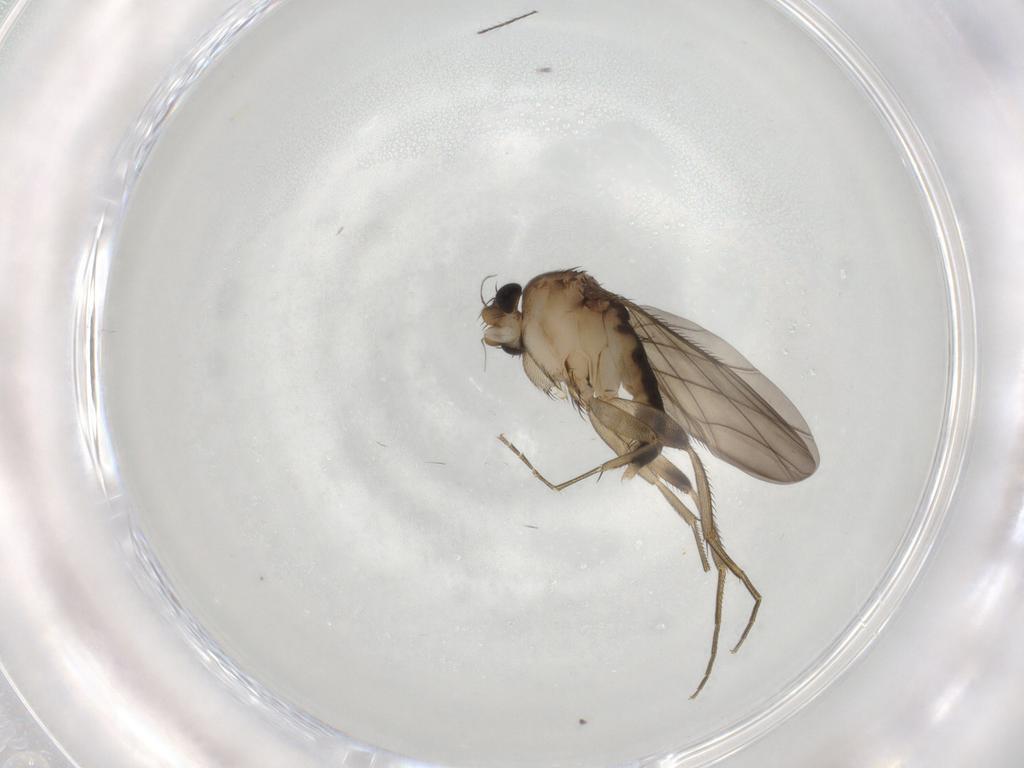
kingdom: Animalia
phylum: Arthropoda
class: Insecta
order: Diptera
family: Phoridae
